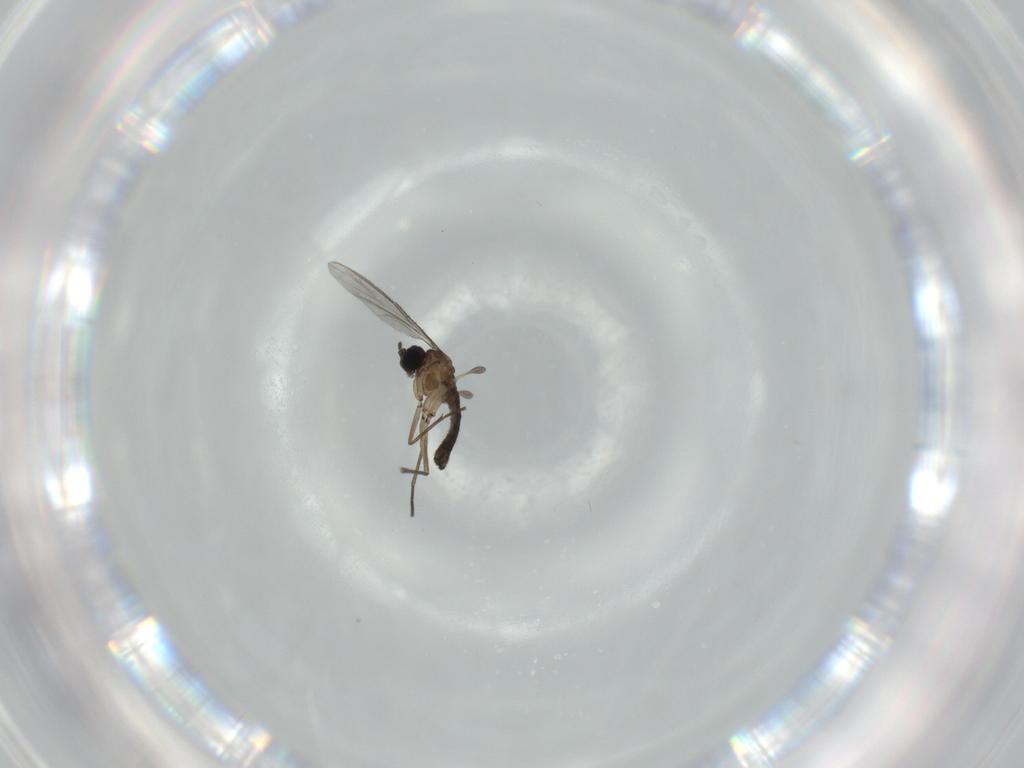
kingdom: Animalia
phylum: Arthropoda
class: Insecta
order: Diptera
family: Sciaridae
